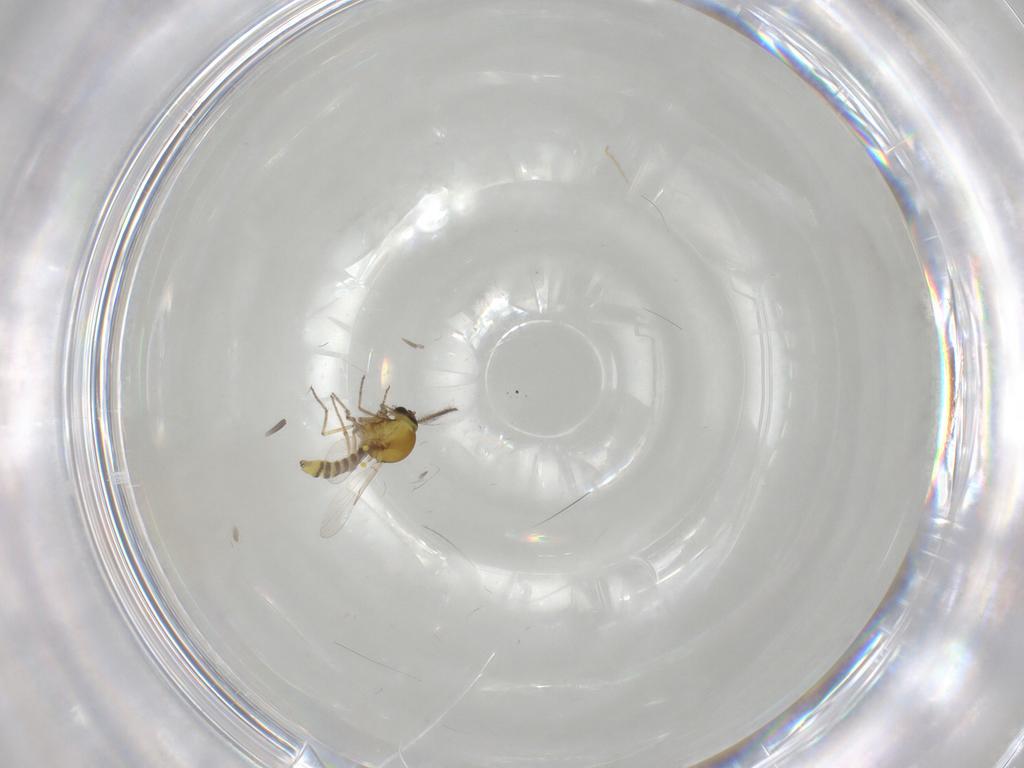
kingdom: Animalia
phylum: Arthropoda
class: Insecta
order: Diptera
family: Ceratopogonidae
